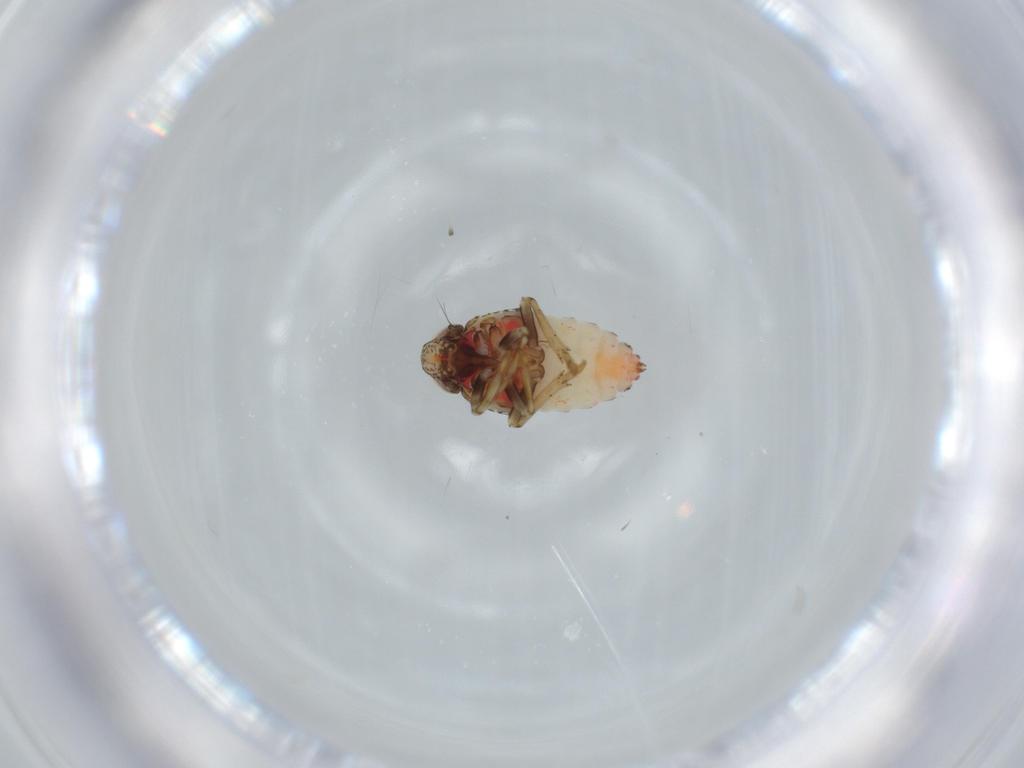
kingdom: Animalia
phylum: Arthropoda
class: Insecta
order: Hemiptera
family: Issidae
